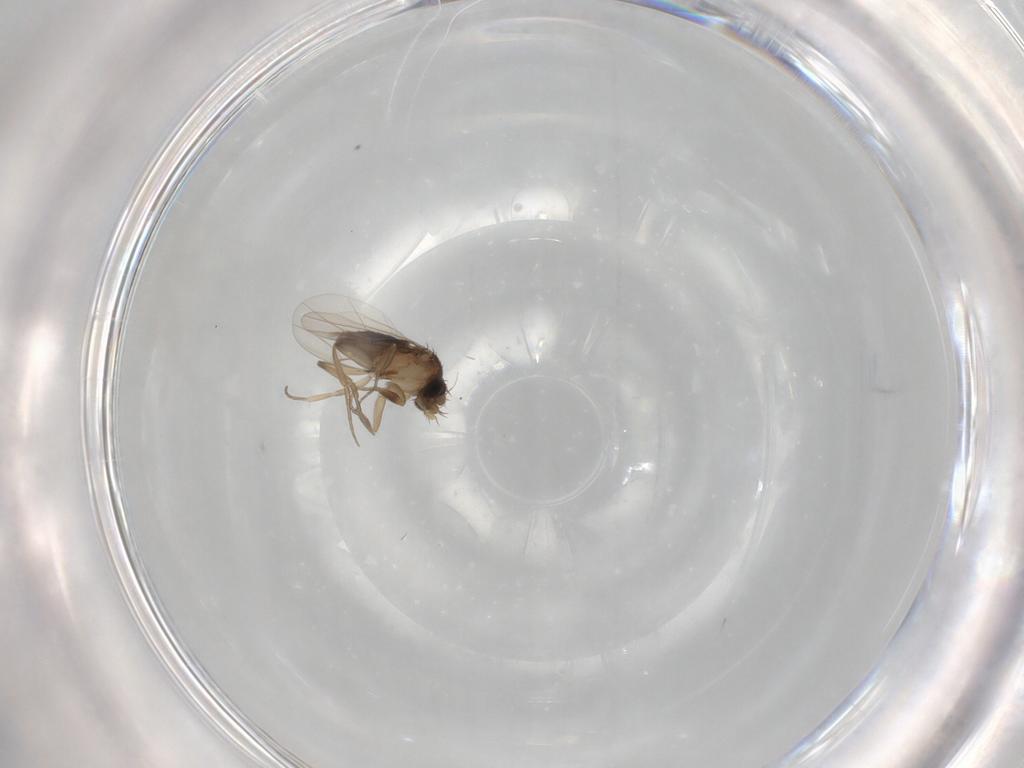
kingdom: Animalia
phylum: Arthropoda
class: Insecta
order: Diptera
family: Phoridae
